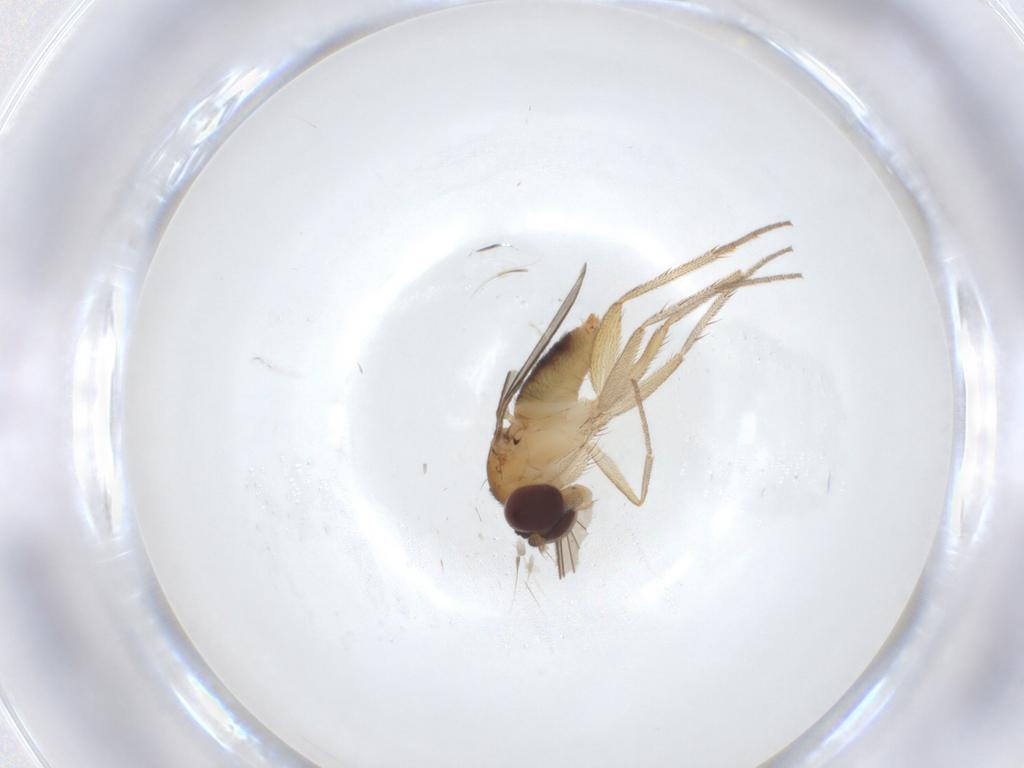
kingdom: Animalia
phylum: Arthropoda
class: Insecta
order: Diptera
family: Dolichopodidae
